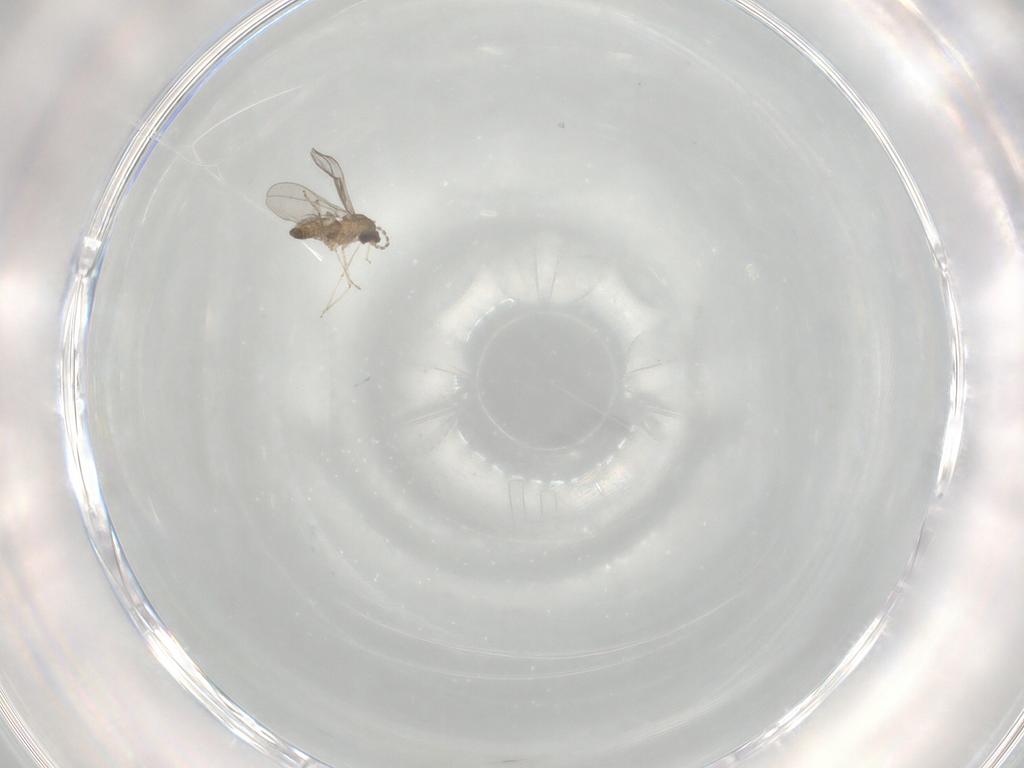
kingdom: Animalia
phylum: Arthropoda
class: Insecta
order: Diptera
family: Cecidomyiidae
